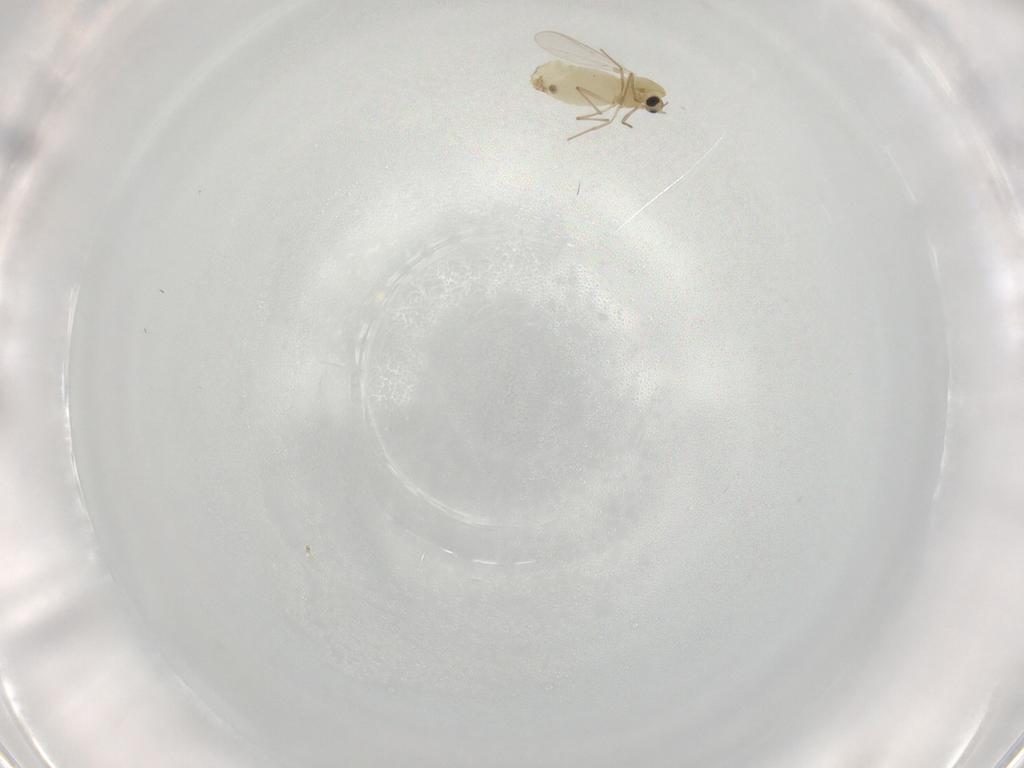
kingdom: Animalia
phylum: Arthropoda
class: Insecta
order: Diptera
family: Chironomidae
